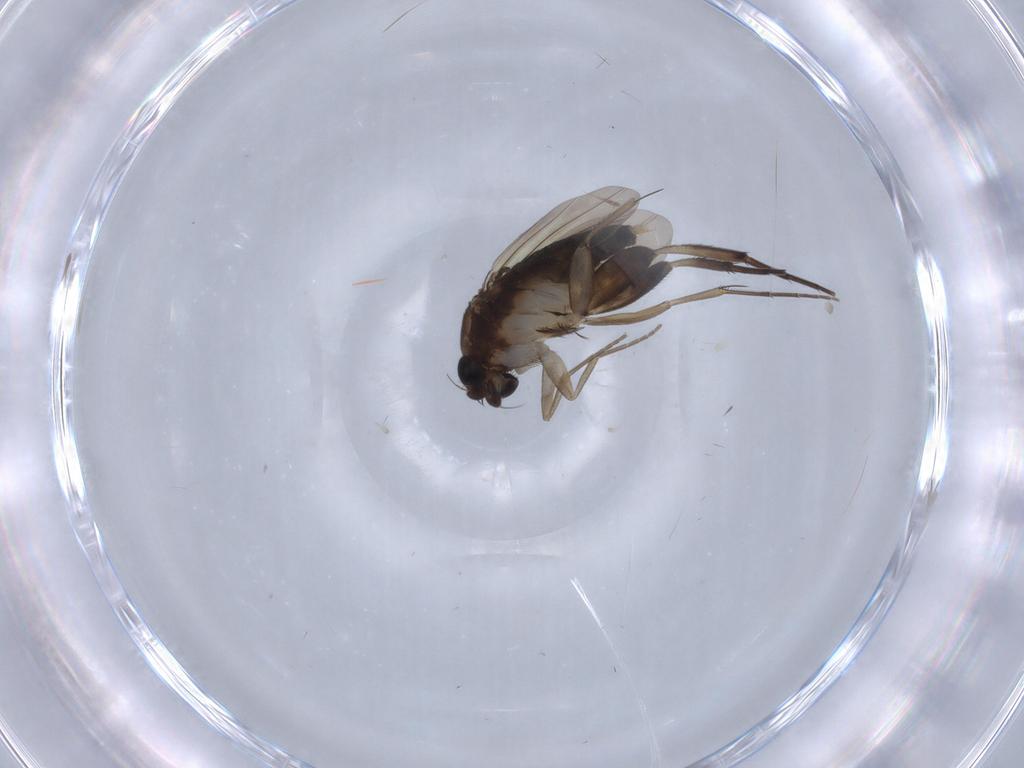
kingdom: Animalia
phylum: Arthropoda
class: Insecta
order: Diptera
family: Phoridae
